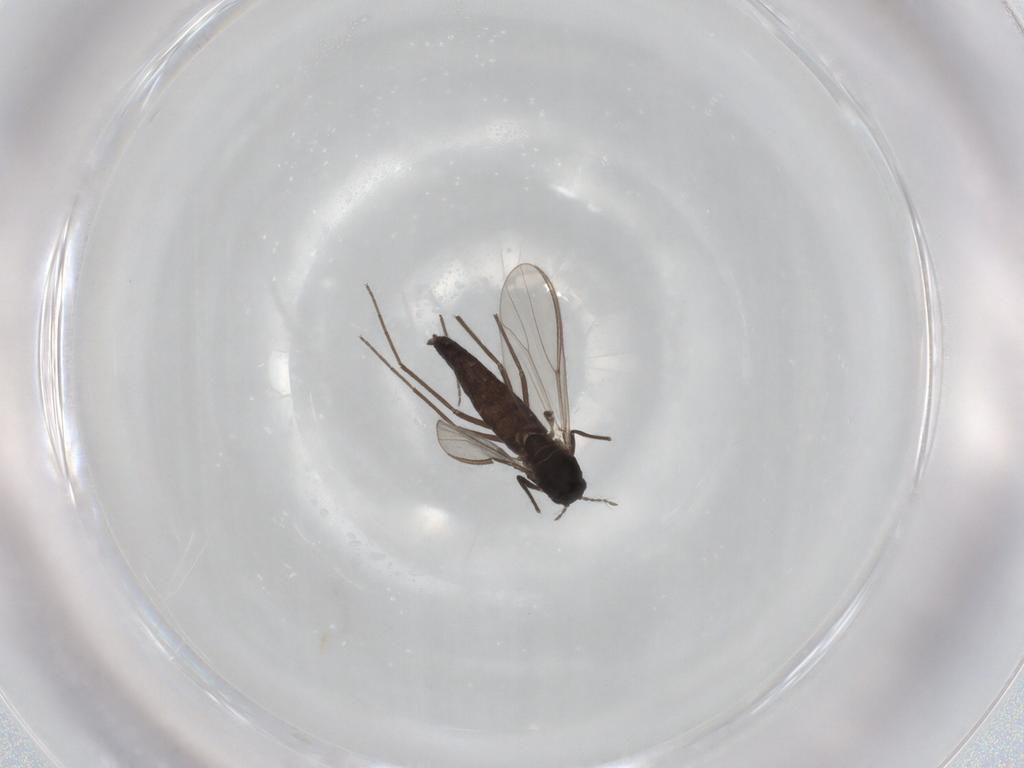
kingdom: Animalia
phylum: Arthropoda
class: Insecta
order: Diptera
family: Chironomidae
